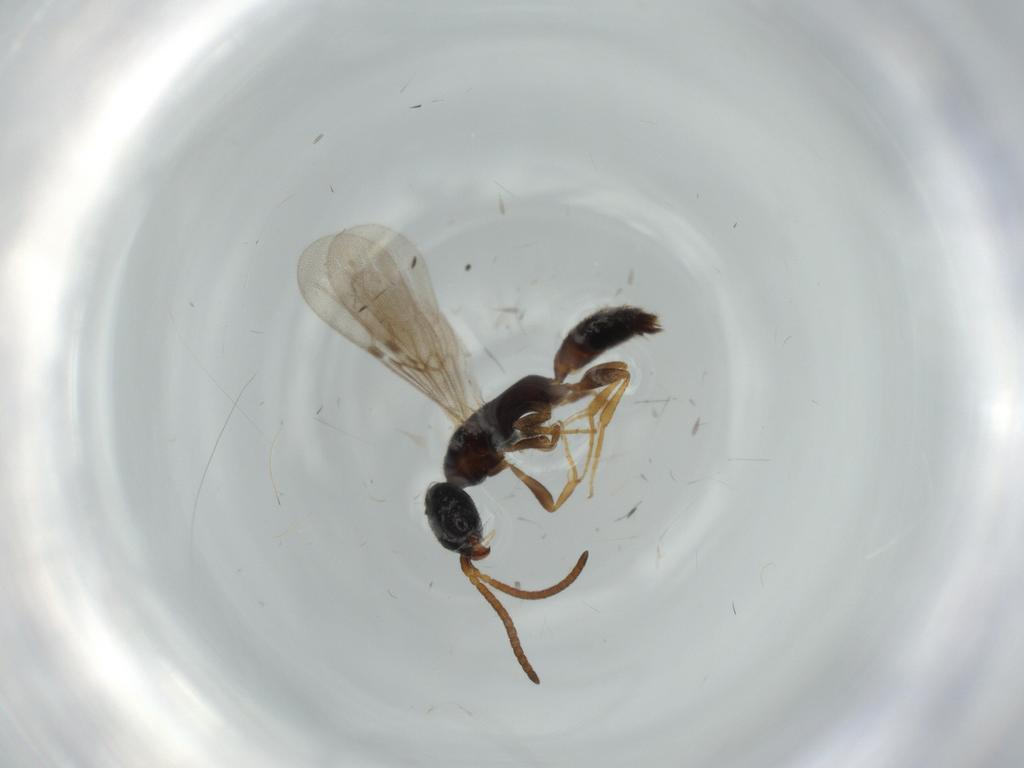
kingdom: Animalia
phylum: Arthropoda
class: Insecta
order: Hymenoptera
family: Bethylidae
